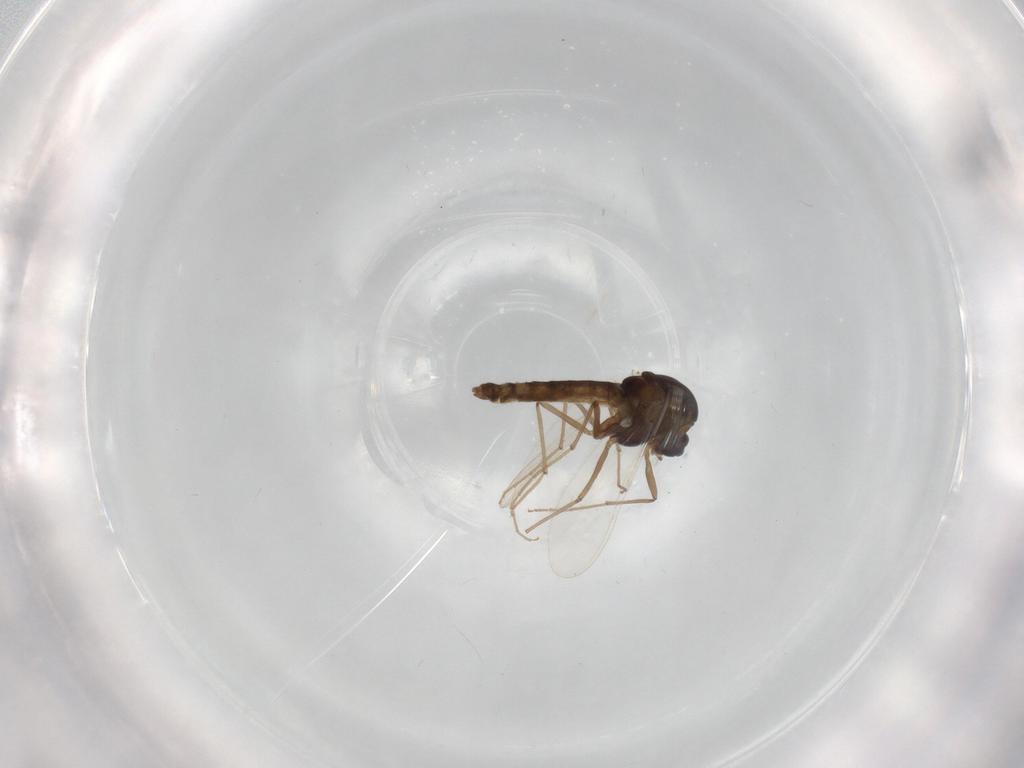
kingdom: Animalia
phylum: Arthropoda
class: Insecta
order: Diptera
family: Chironomidae
